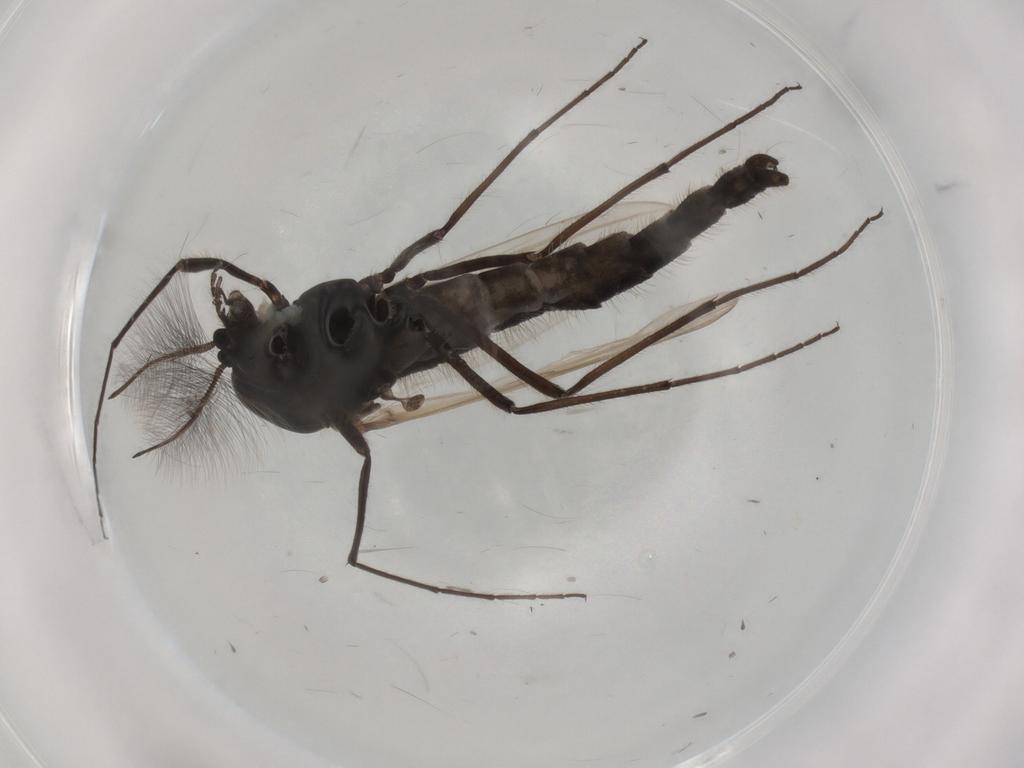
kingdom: Animalia
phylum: Arthropoda
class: Insecta
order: Diptera
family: Chironomidae
